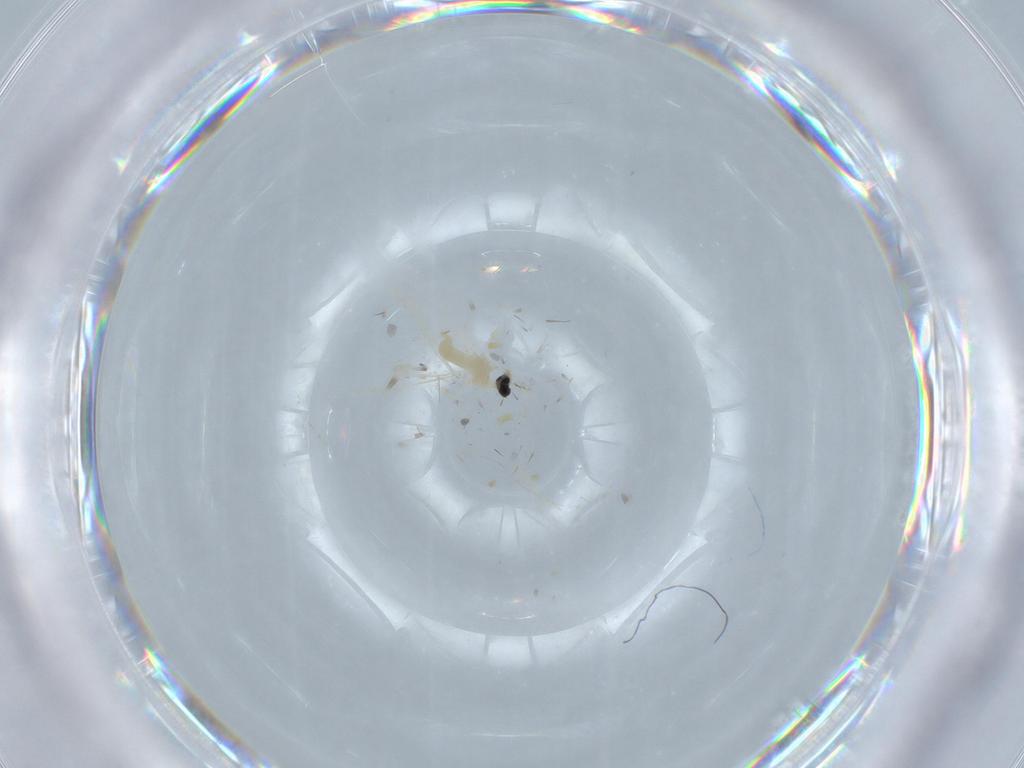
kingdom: Animalia
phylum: Arthropoda
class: Insecta
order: Diptera
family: Cecidomyiidae
